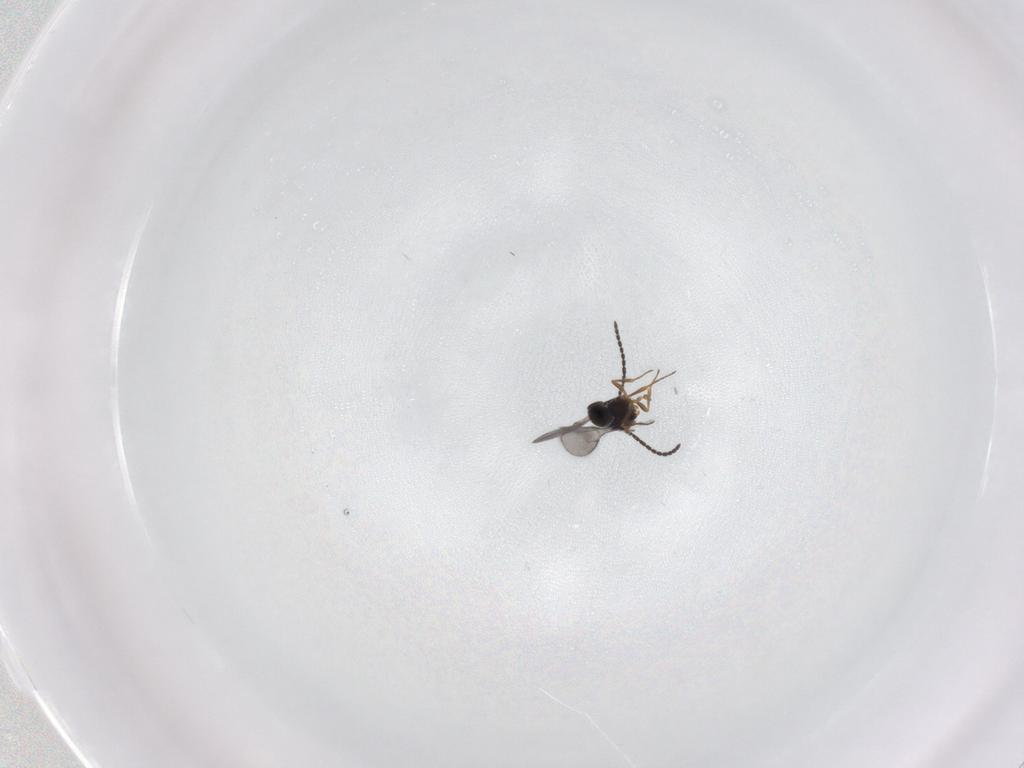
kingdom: Animalia
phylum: Arthropoda
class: Insecta
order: Hymenoptera
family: Scelionidae
